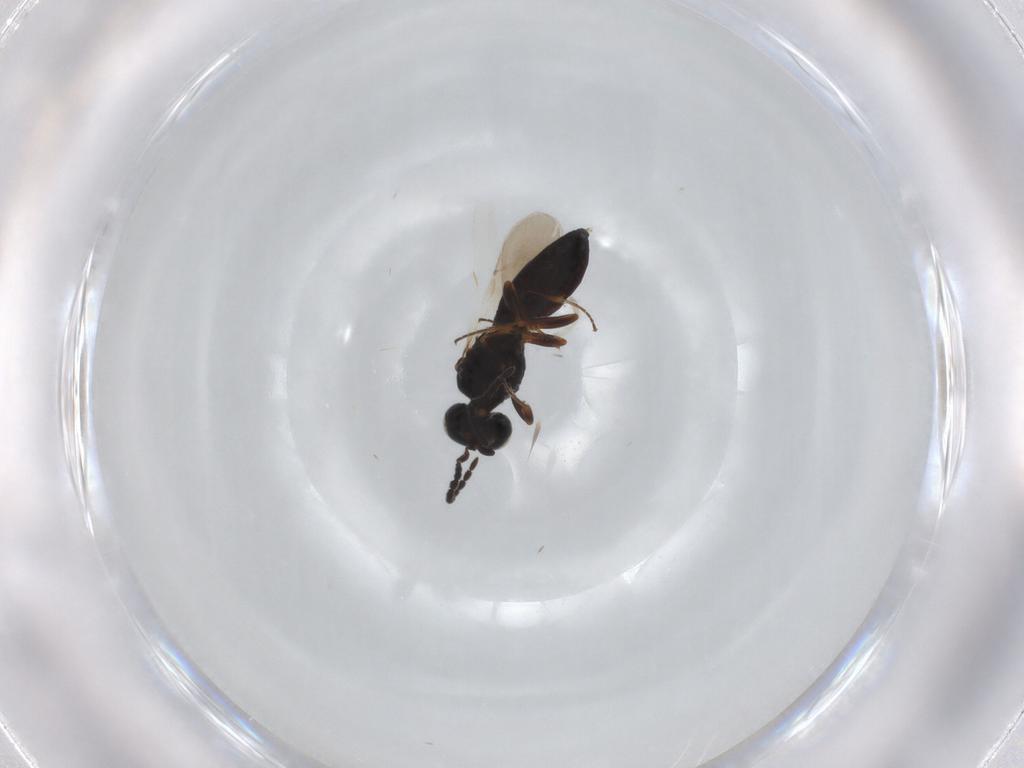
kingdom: Animalia
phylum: Arthropoda
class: Insecta
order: Hymenoptera
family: Scelionidae
